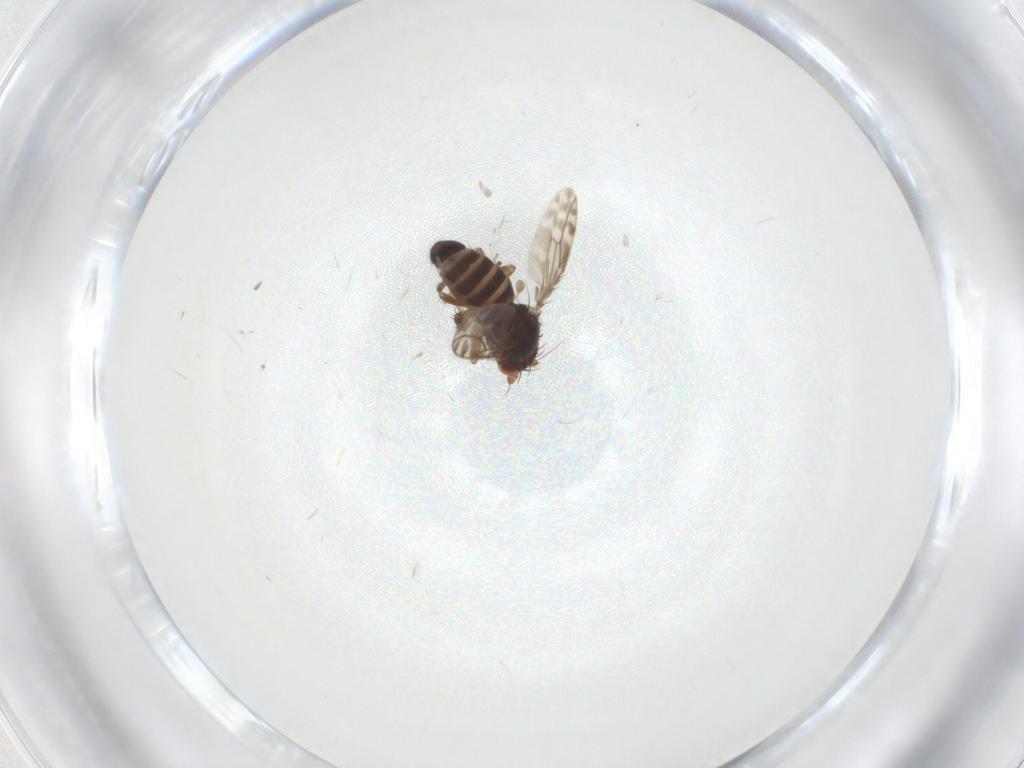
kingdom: Animalia
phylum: Arthropoda
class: Insecta
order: Diptera
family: Sphaeroceridae
